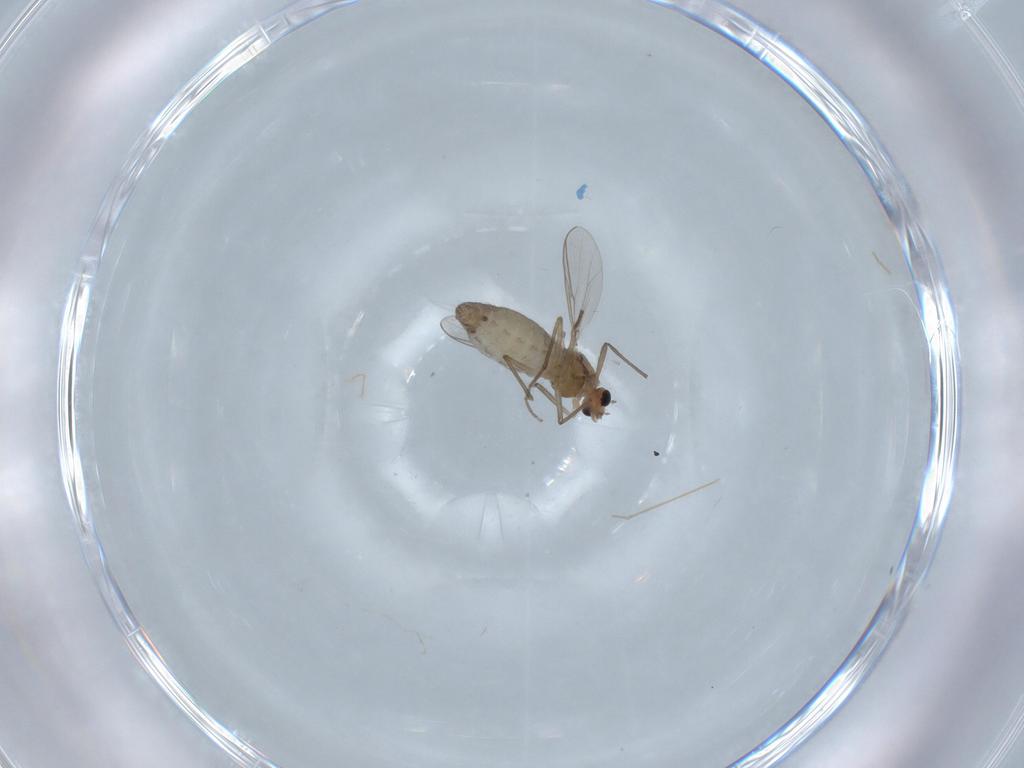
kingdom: Animalia
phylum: Arthropoda
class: Insecta
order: Diptera
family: Chironomidae
